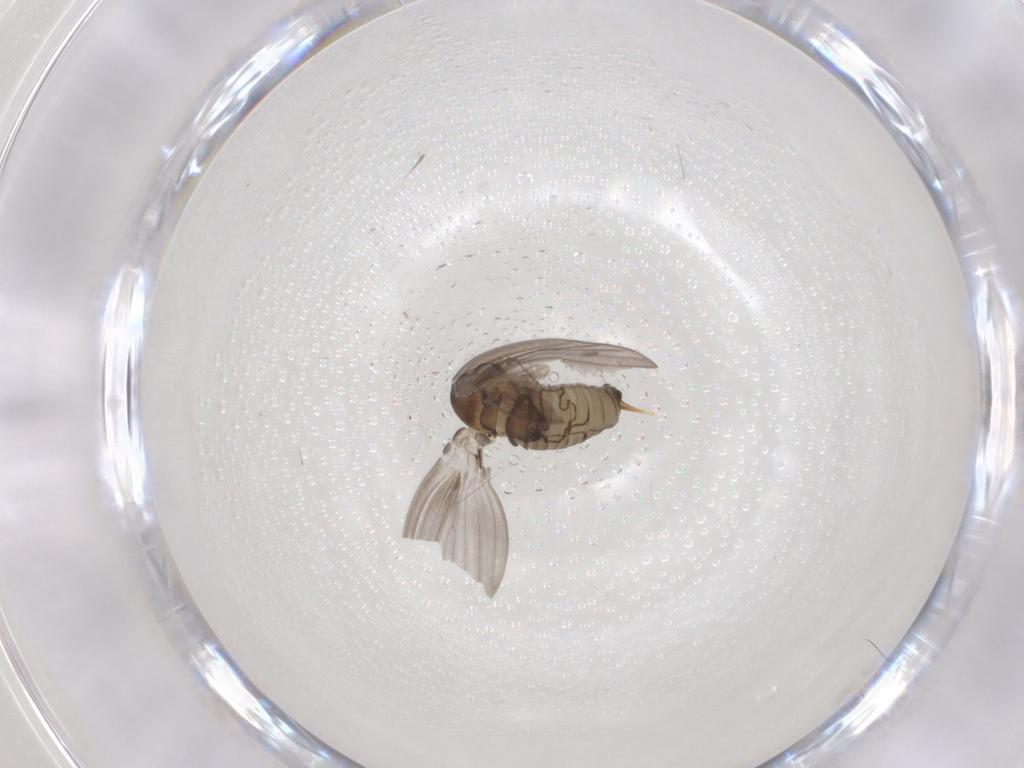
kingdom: Animalia
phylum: Arthropoda
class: Insecta
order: Diptera
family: Psychodidae
